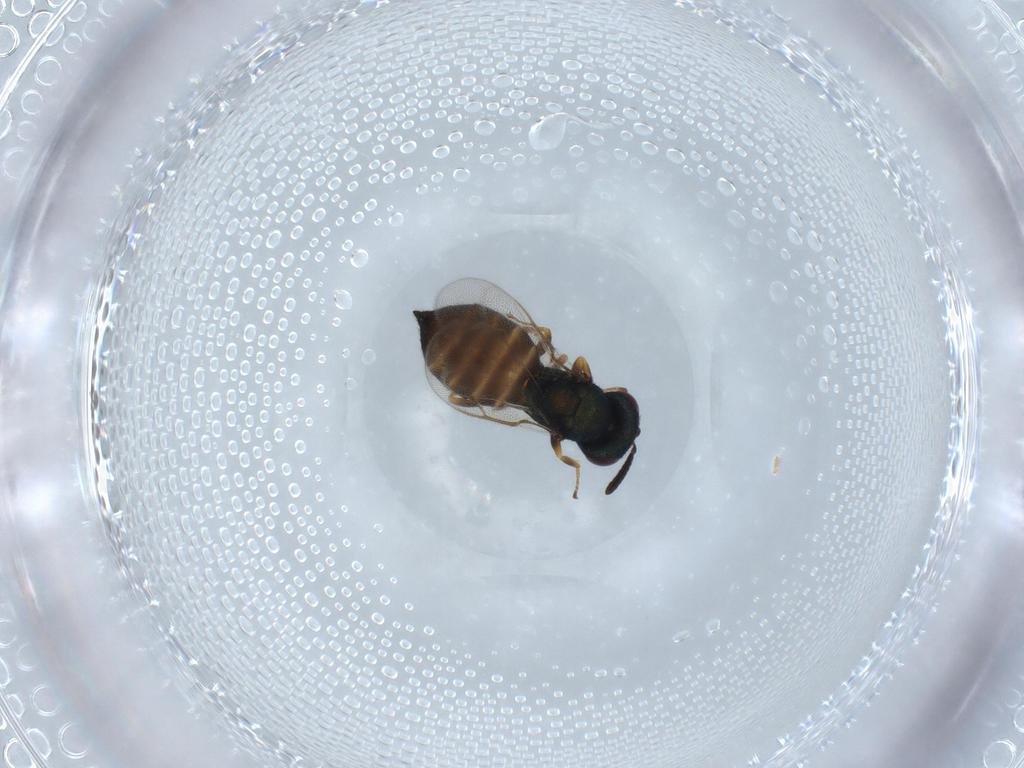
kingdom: Animalia
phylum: Arthropoda
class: Insecta
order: Hymenoptera
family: Pteromalidae
